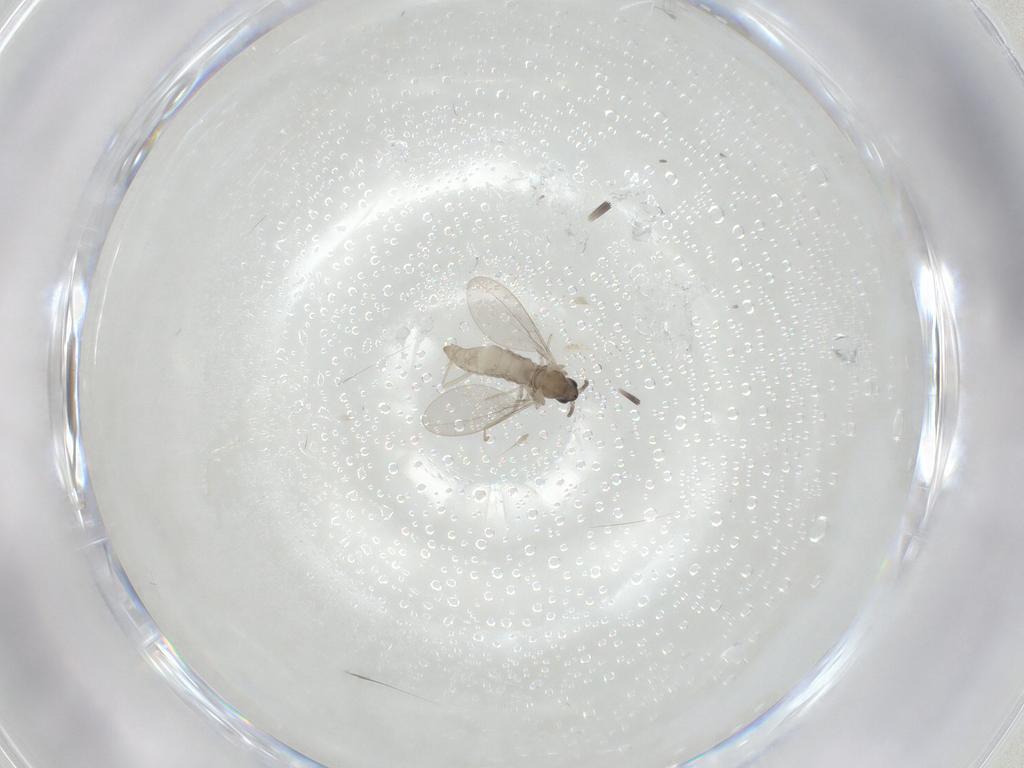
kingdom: Animalia
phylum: Arthropoda
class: Insecta
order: Diptera
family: Cecidomyiidae
